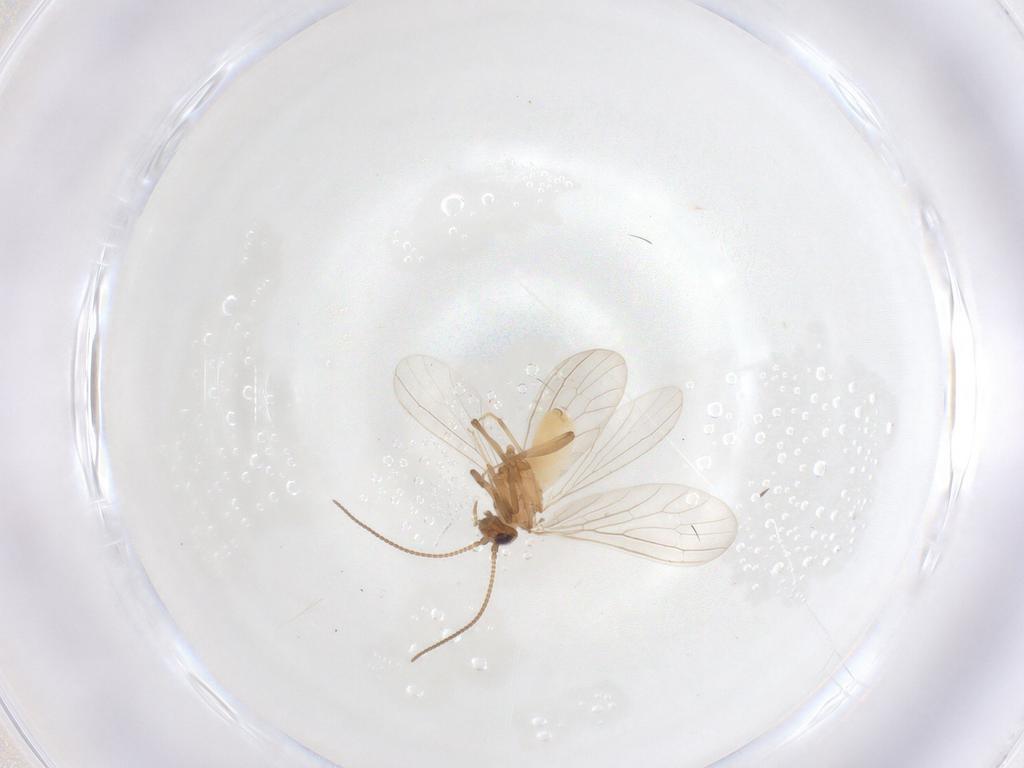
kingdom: Animalia
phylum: Arthropoda
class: Insecta
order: Neuroptera
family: Coniopterygidae
